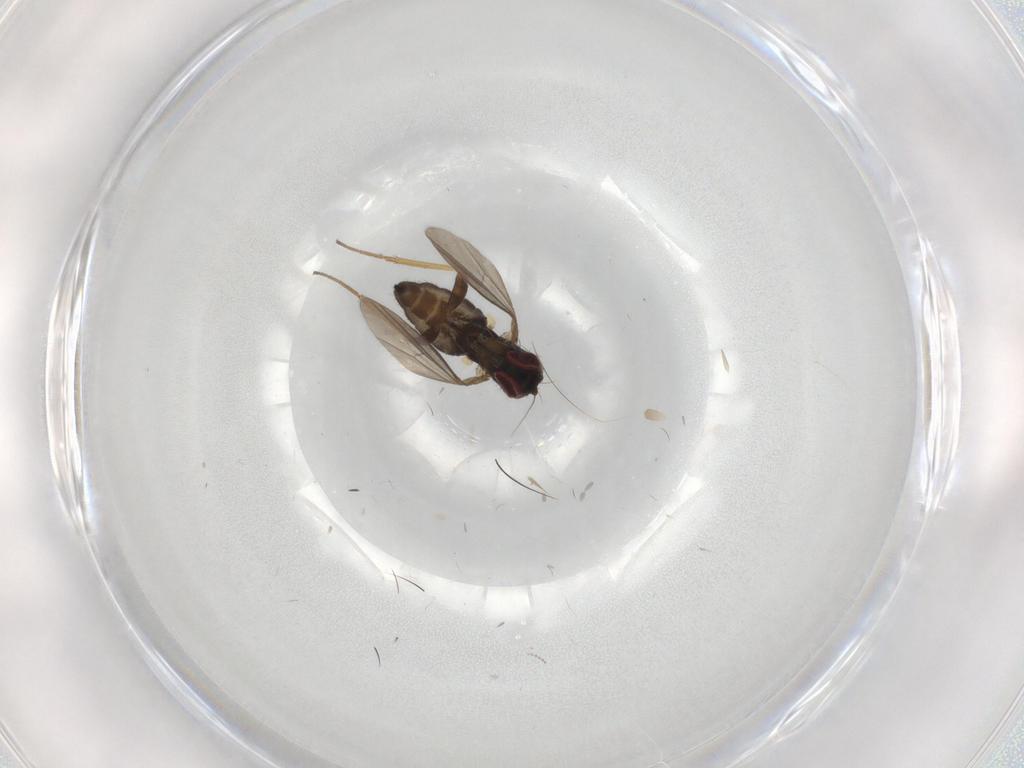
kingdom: Animalia
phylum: Arthropoda
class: Insecta
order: Diptera
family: Dolichopodidae
